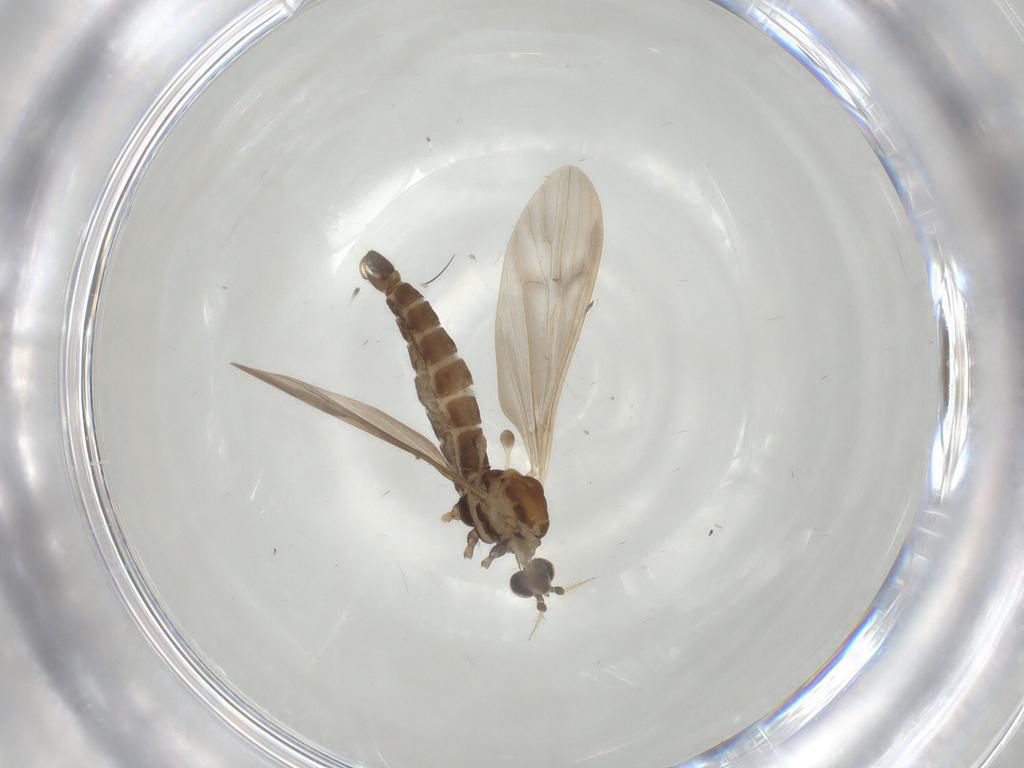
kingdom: Animalia
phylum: Arthropoda
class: Insecta
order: Diptera
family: Limoniidae
